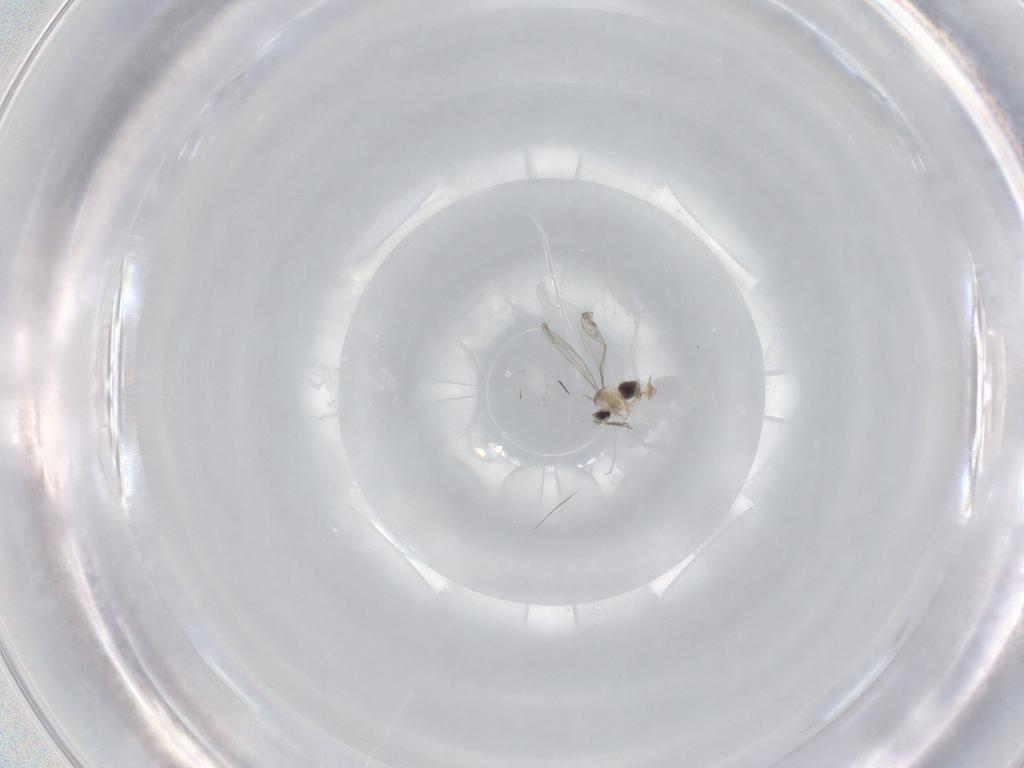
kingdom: Animalia
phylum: Arthropoda
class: Insecta
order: Diptera
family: Cecidomyiidae
